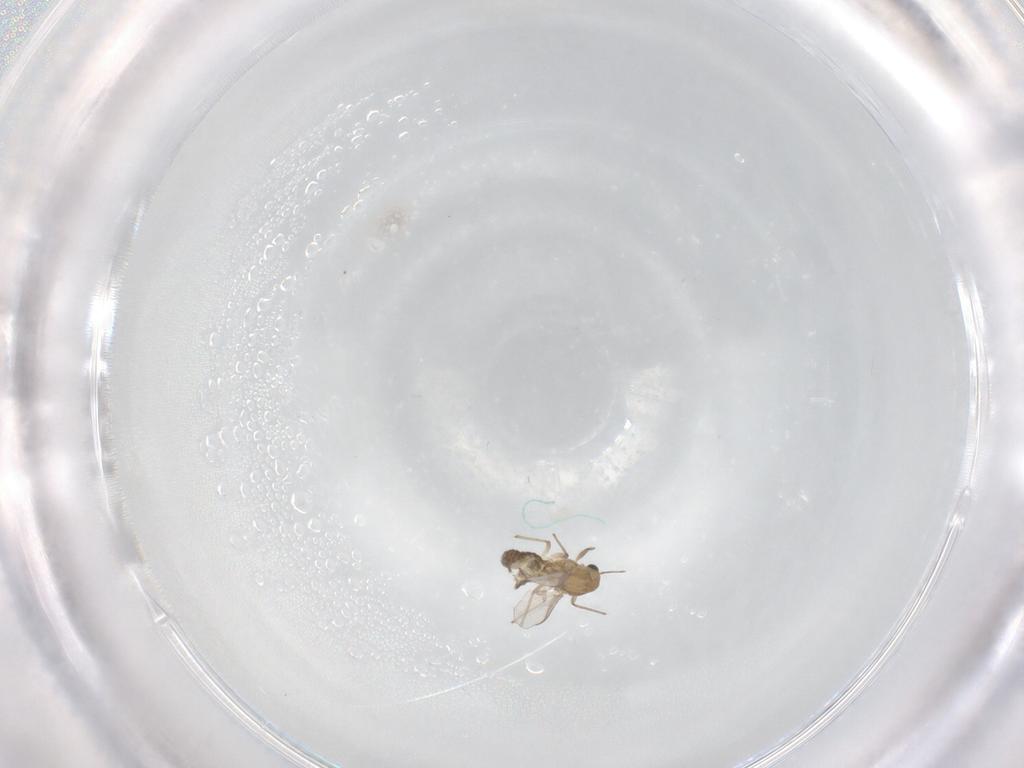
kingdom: Animalia
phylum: Arthropoda
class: Insecta
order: Diptera
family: Chironomidae
